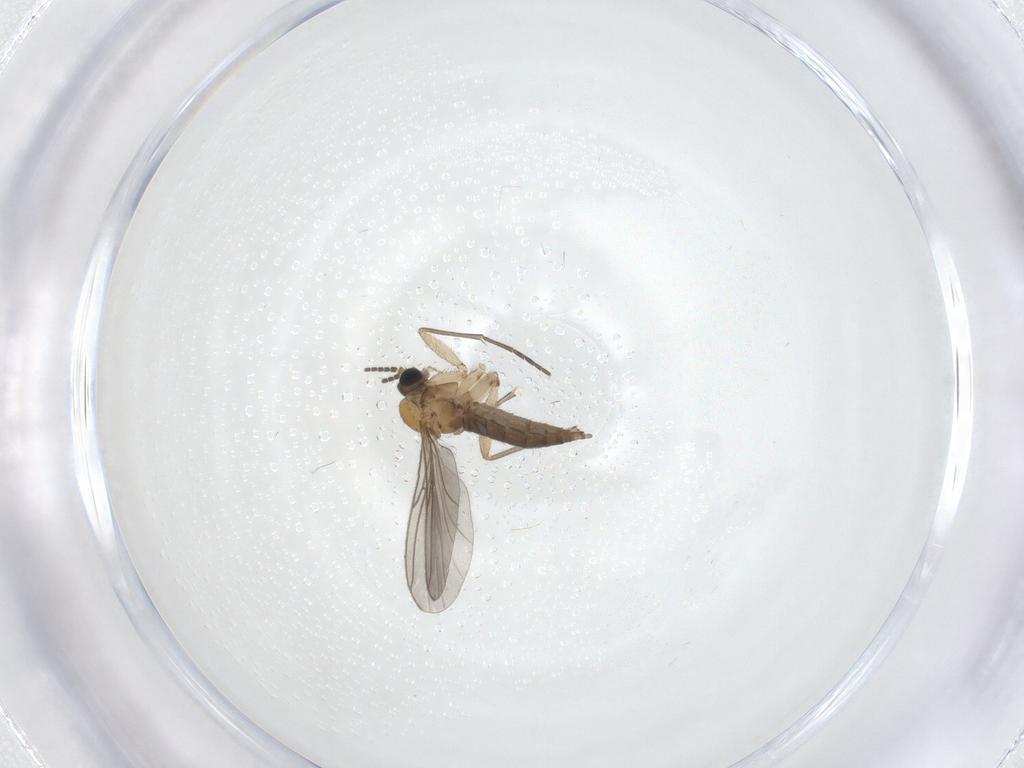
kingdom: Animalia
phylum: Arthropoda
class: Insecta
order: Diptera
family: Sciaridae
